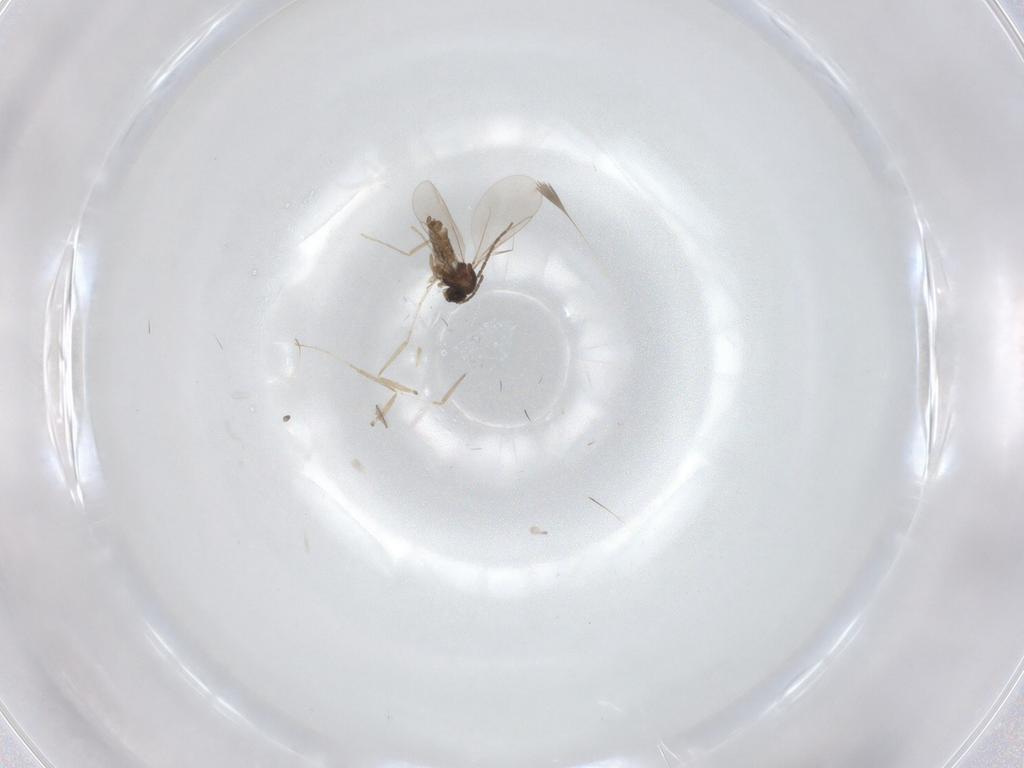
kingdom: Animalia
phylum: Arthropoda
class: Insecta
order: Diptera
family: Cecidomyiidae
